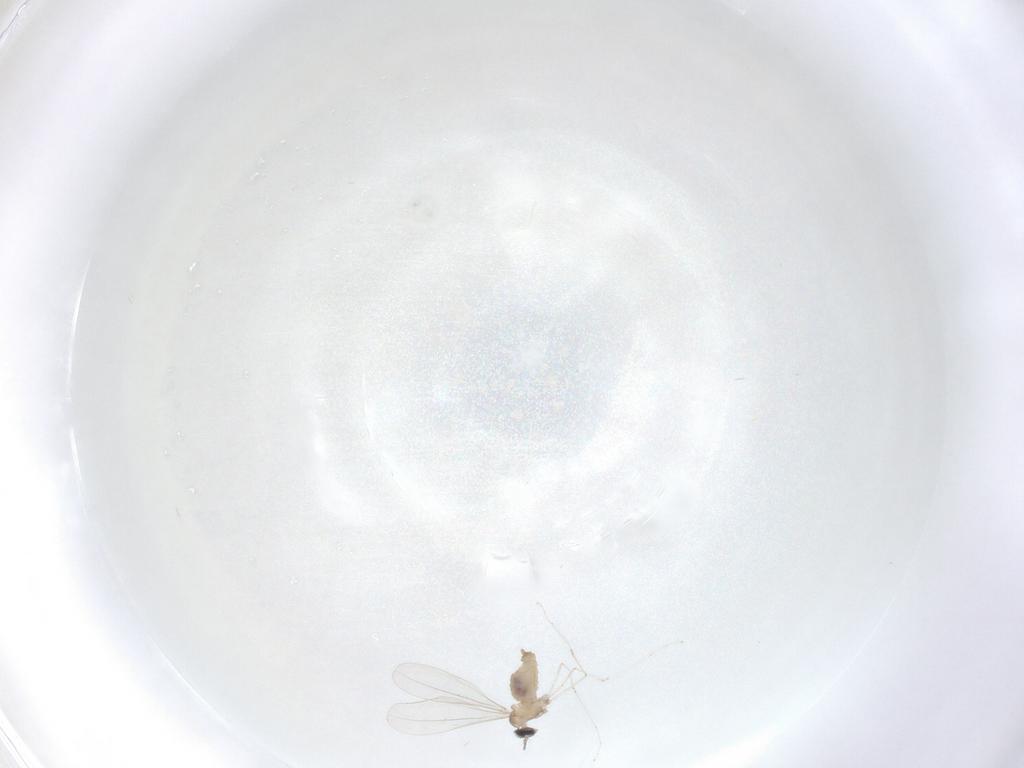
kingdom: Animalia
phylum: Arthropoda
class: Insecta
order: Diptera
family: Cecidomyiidae
